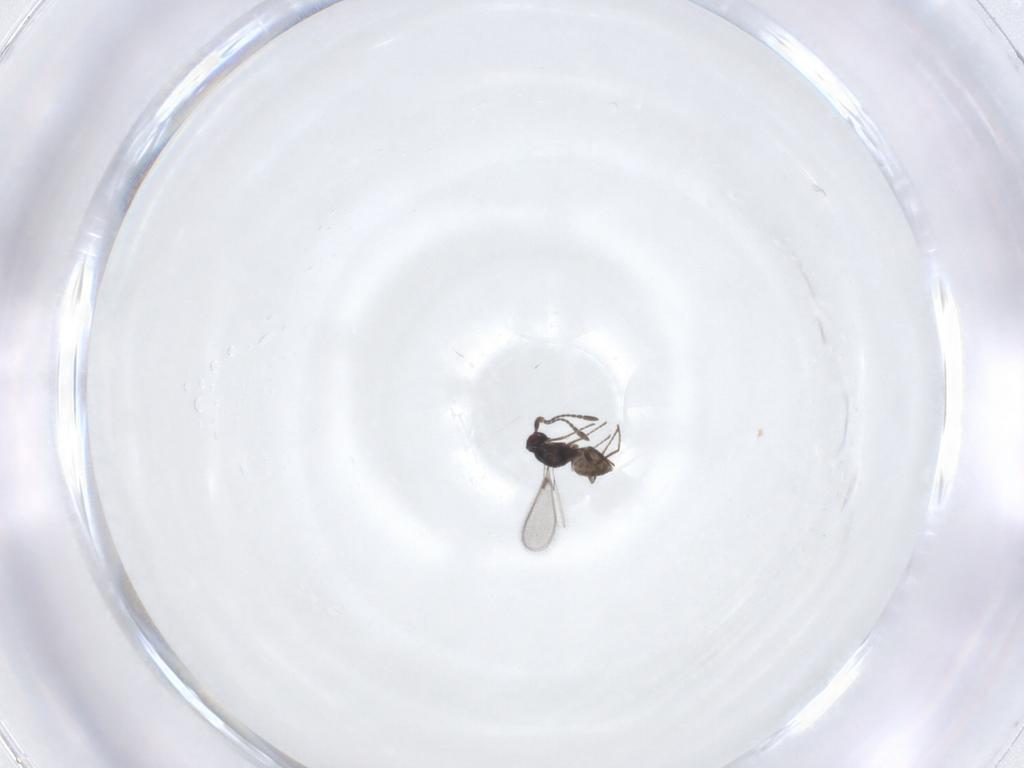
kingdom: Animalia
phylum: Arthropoda
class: Insecta
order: Hymenoptera
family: Mymaridae
